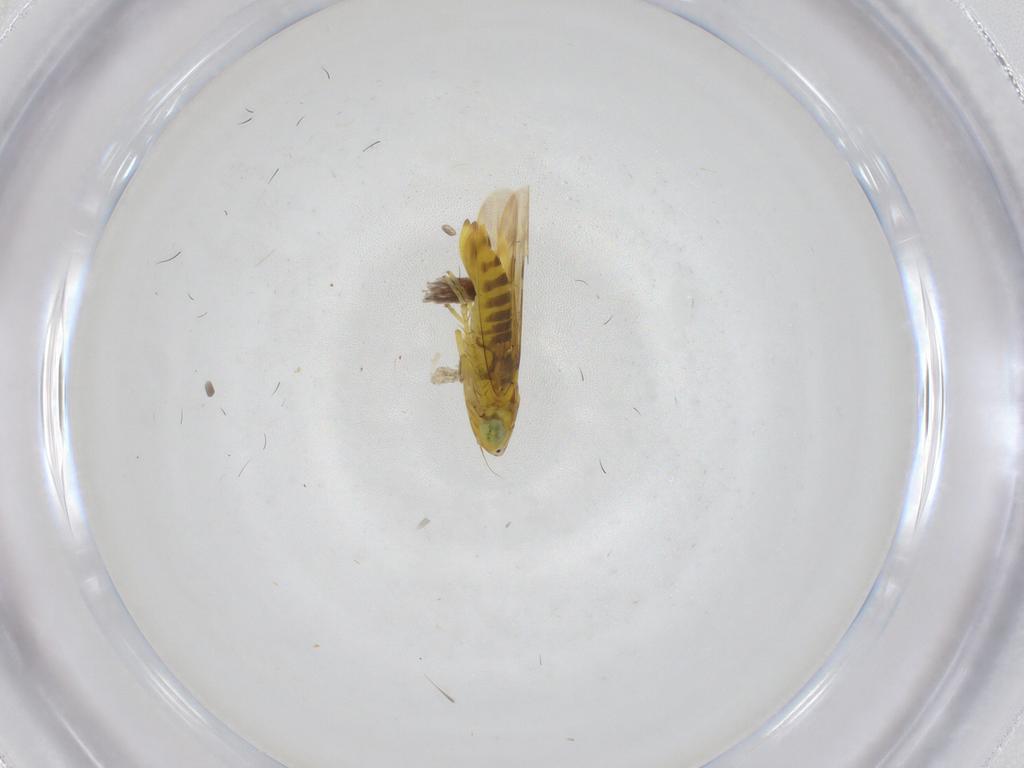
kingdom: Animalia
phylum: Arthropoda
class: Insecta
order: Hemiptera
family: Cicadellidae
